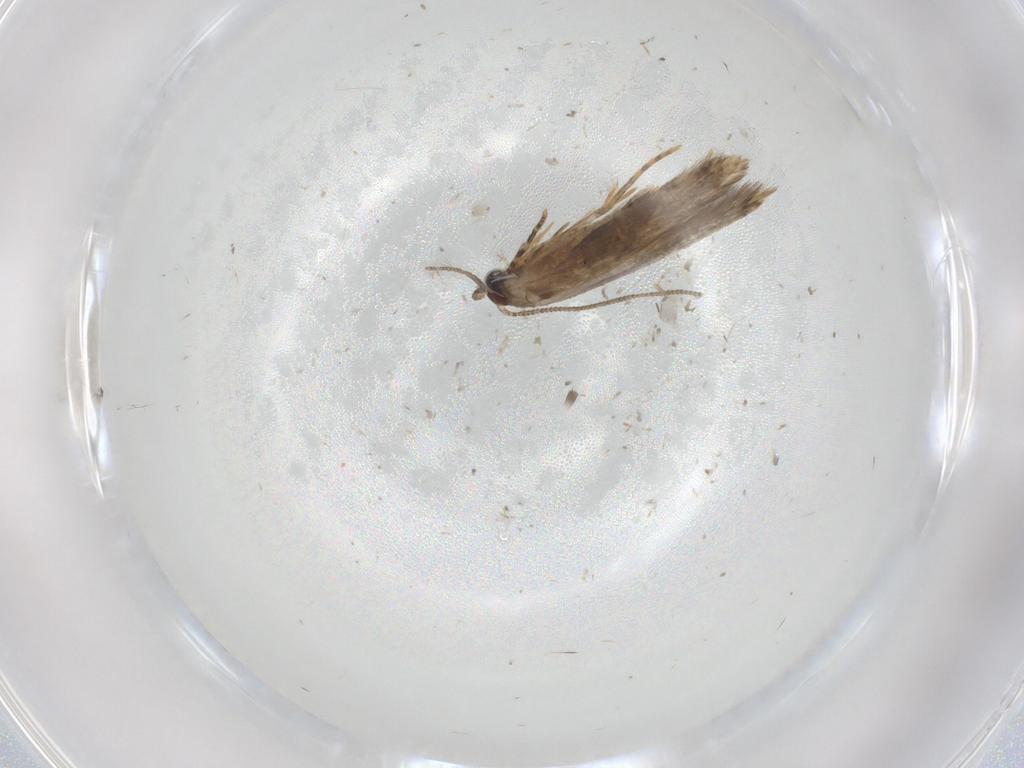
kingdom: Animalia
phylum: Arthropoda
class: Insecta
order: Lepidoptera
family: Tineidae
